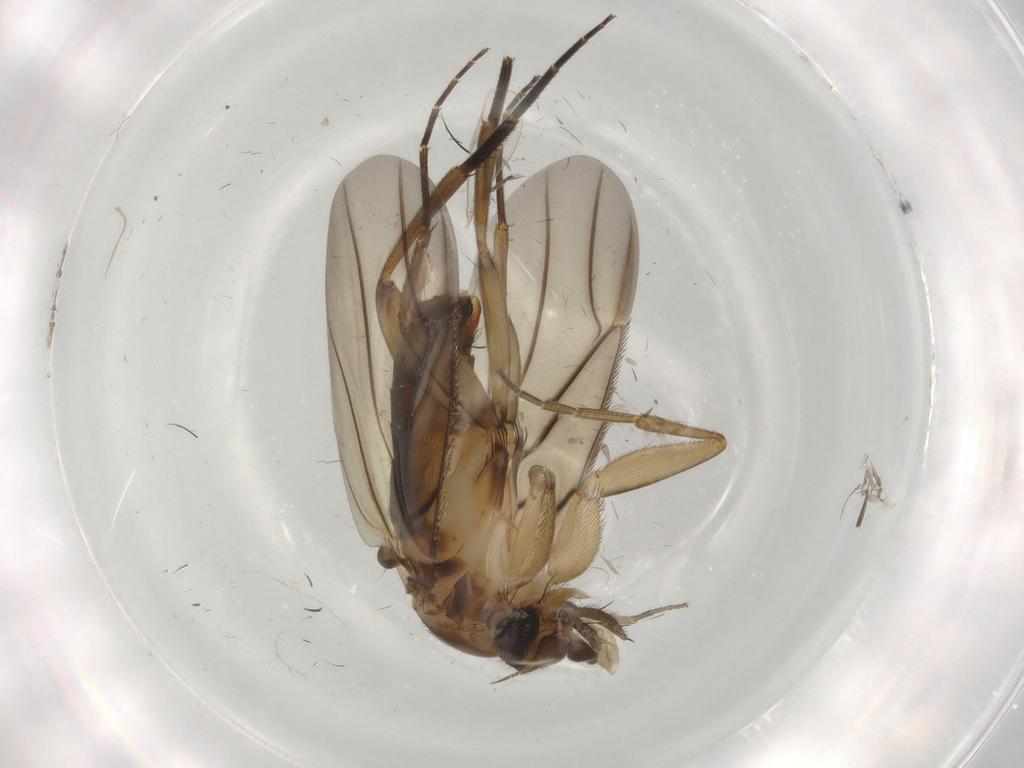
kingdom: Animalia
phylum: Arthropoda
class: Insecta
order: Diptera
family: Phoridae
